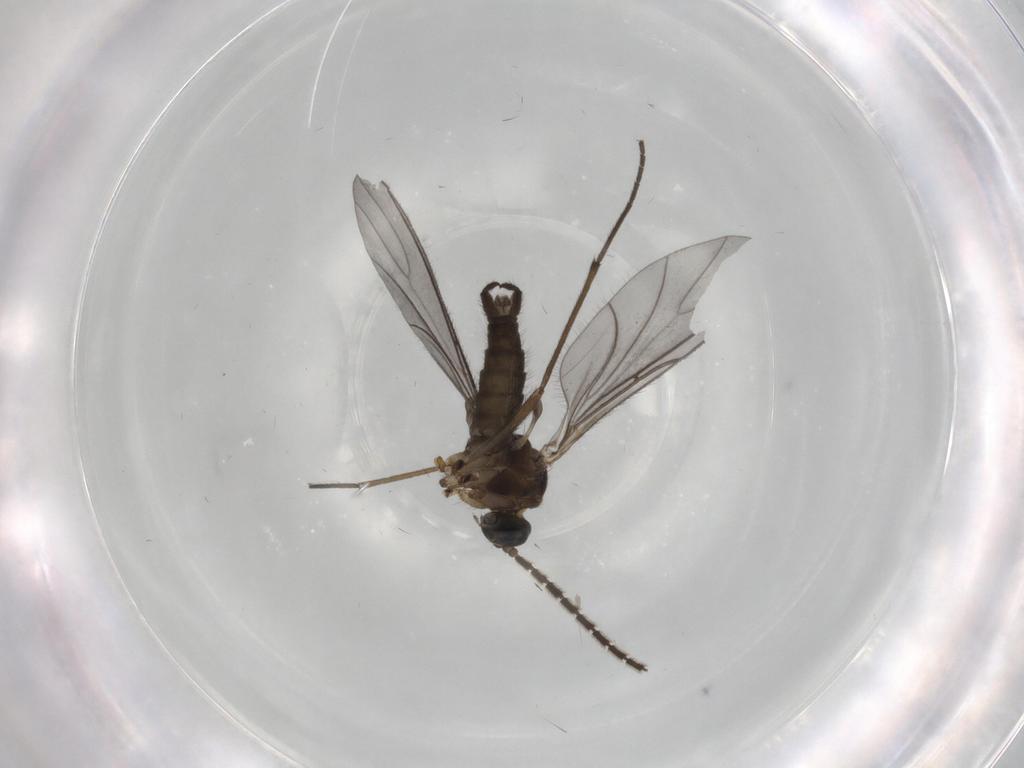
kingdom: Animalia
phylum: Arthropoda
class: Insecta
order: Diptera
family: Sciaridae
